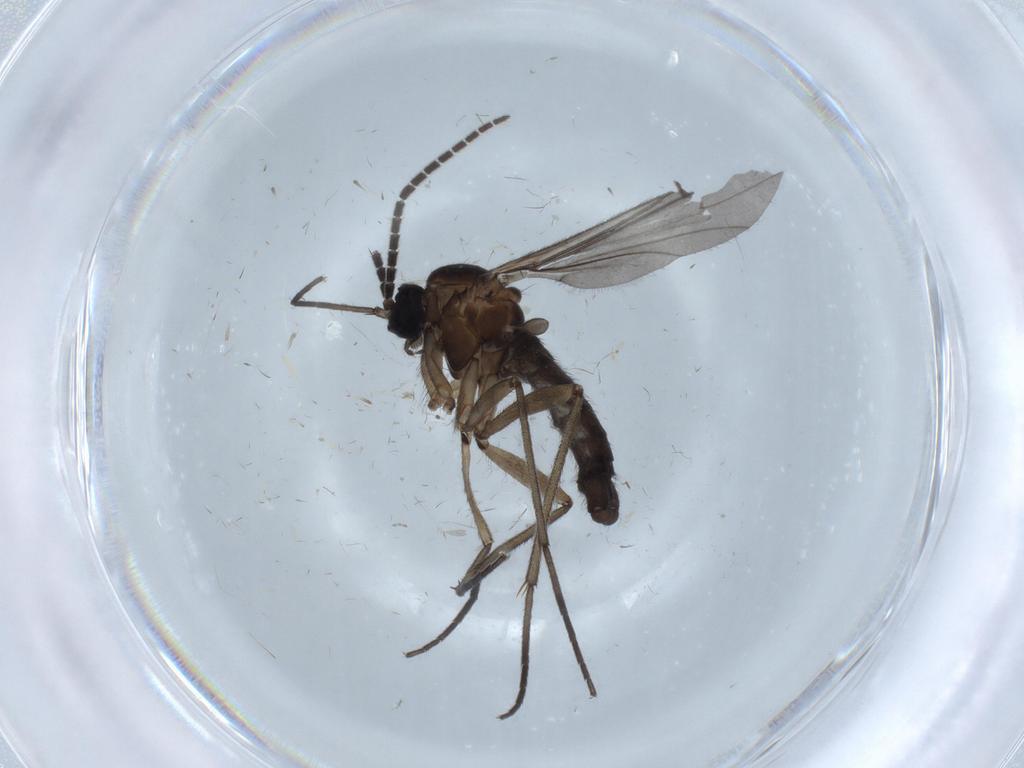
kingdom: Animalia
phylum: Arthropoda
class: Insecta
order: Diptera
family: Sciaridae
